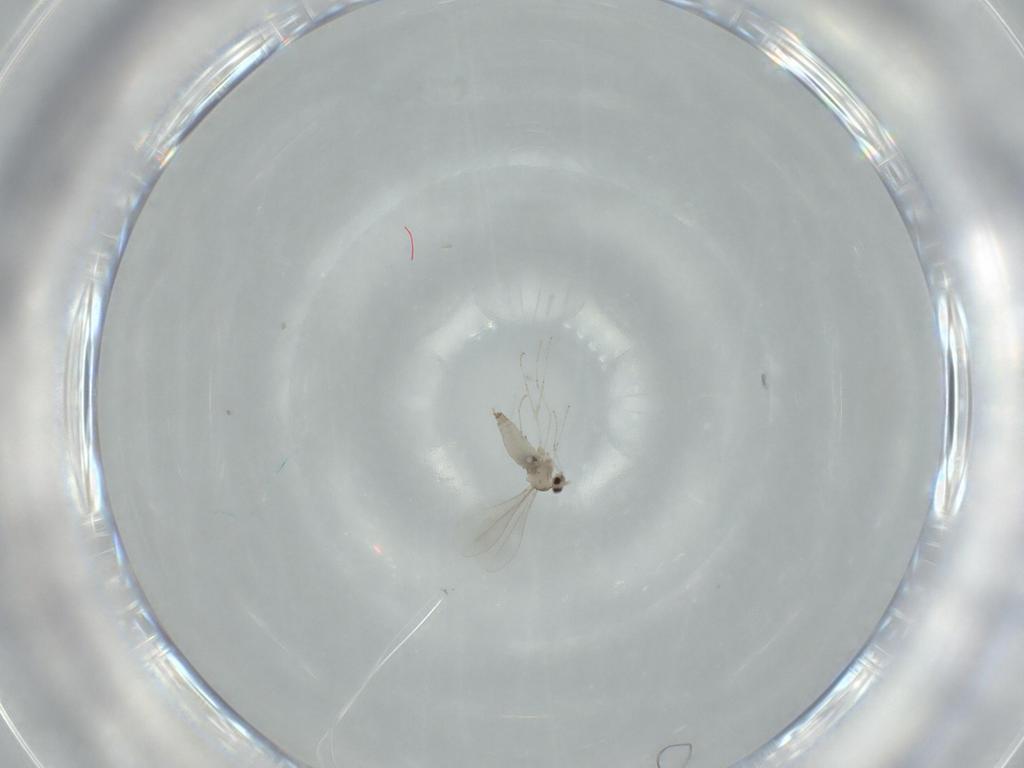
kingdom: Animalia
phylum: Arthropoda
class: Insecta
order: Diptera
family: Cecidomyiidae
